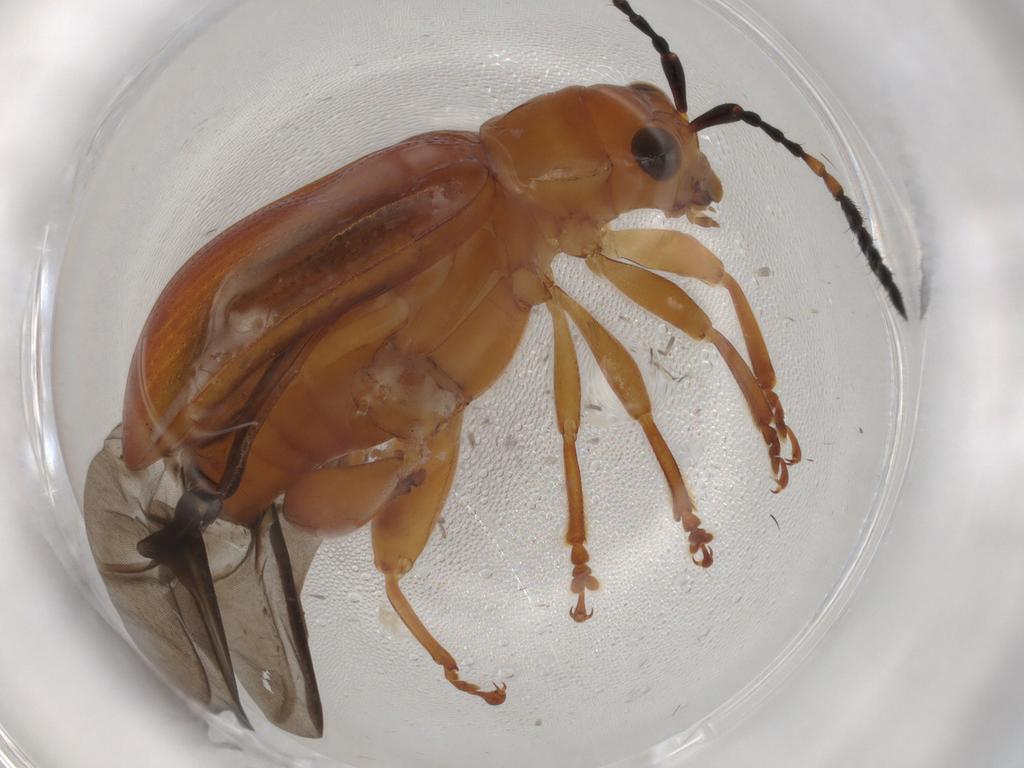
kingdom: Animalia
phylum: Arthropoda
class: Insecta
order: Coleoptera
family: Chrysomelidae
